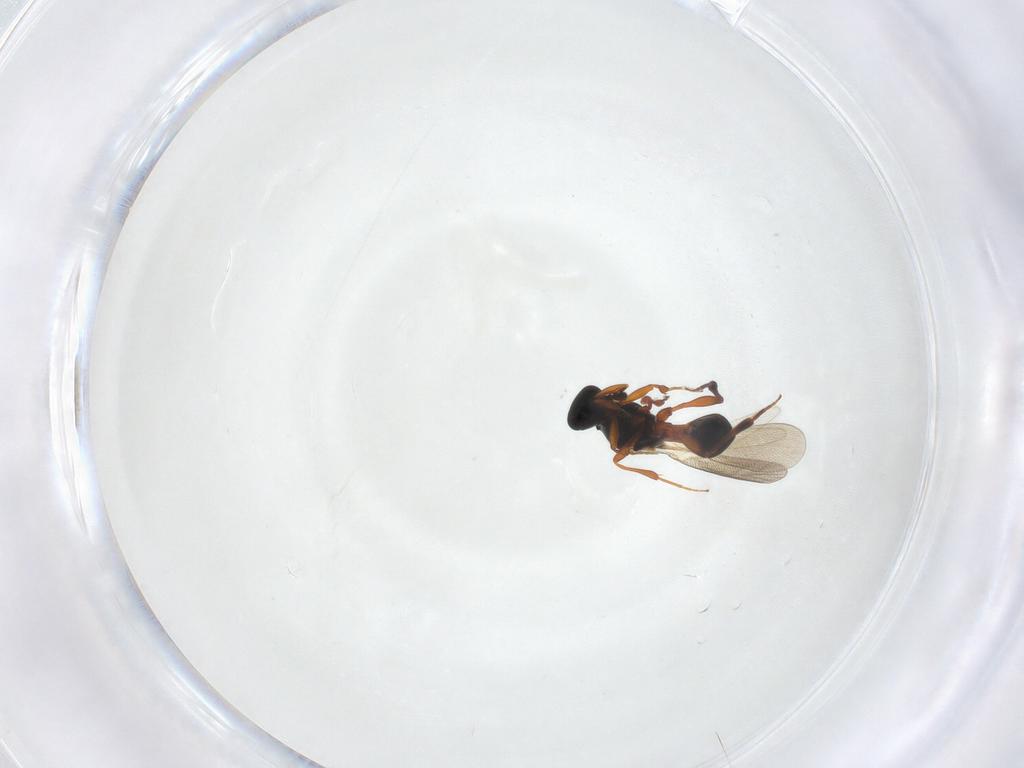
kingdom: Animalia
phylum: Arthropoda
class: Insecta
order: Hymenoptera
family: Platygastridae
